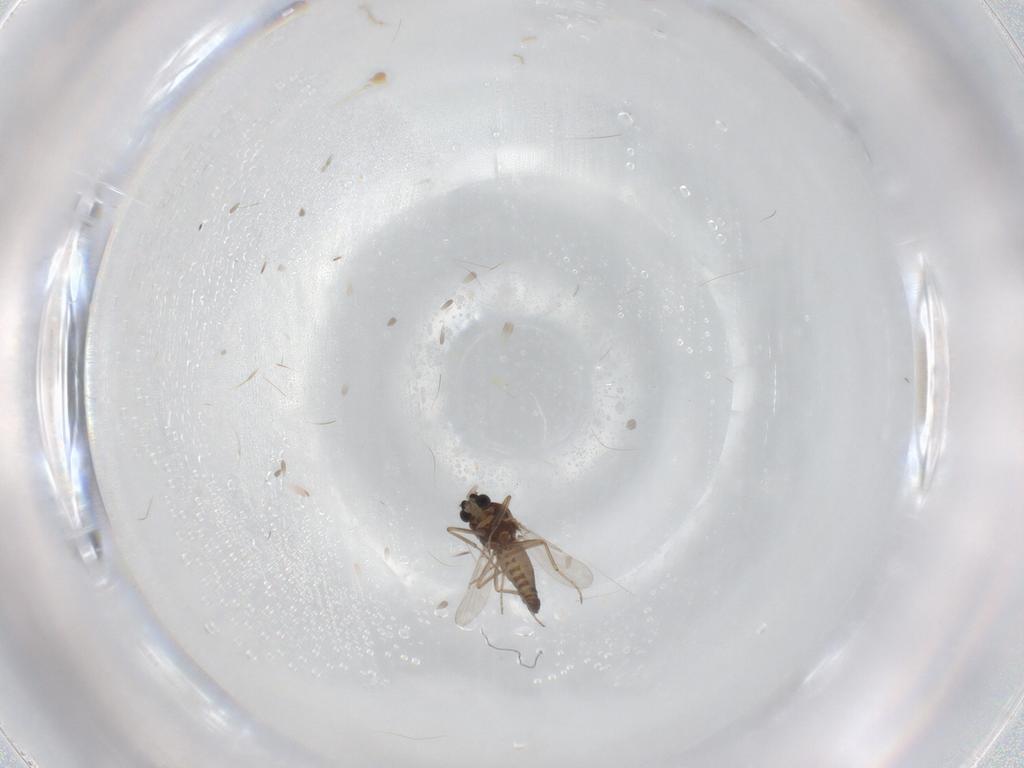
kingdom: Animalia
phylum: Arthropoda
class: Insecta
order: Diptera
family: Ceratopogonidae
